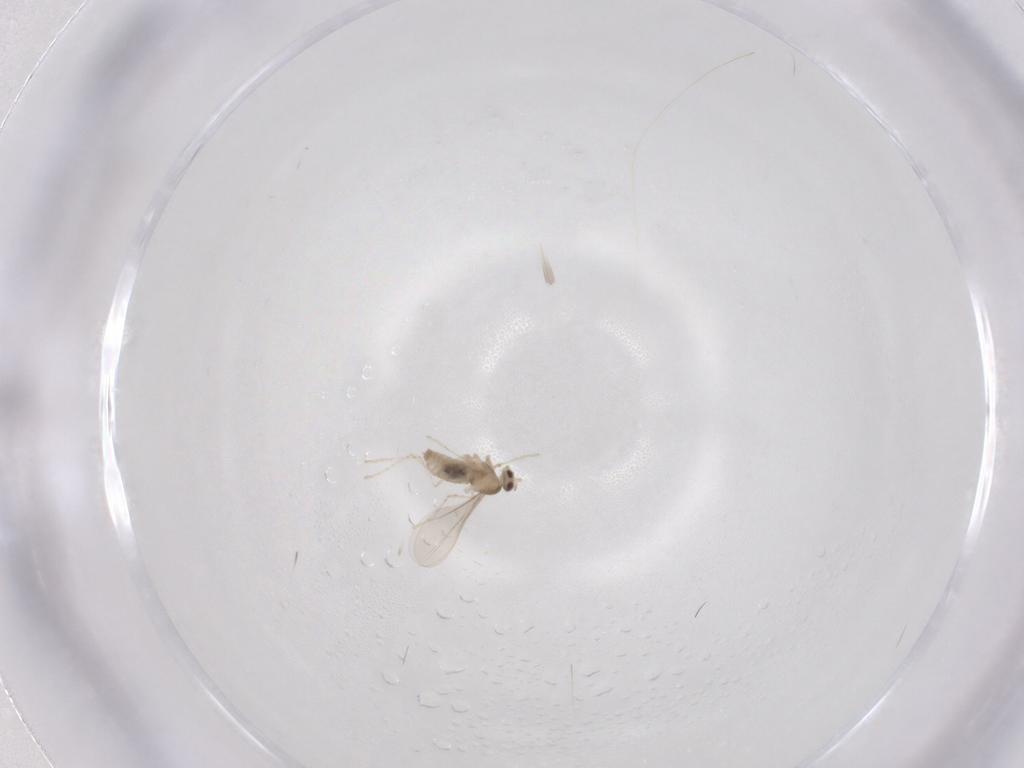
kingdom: Animalia
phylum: Arthropoda
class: Insecta
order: Diptera
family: Cecidomyiidae
